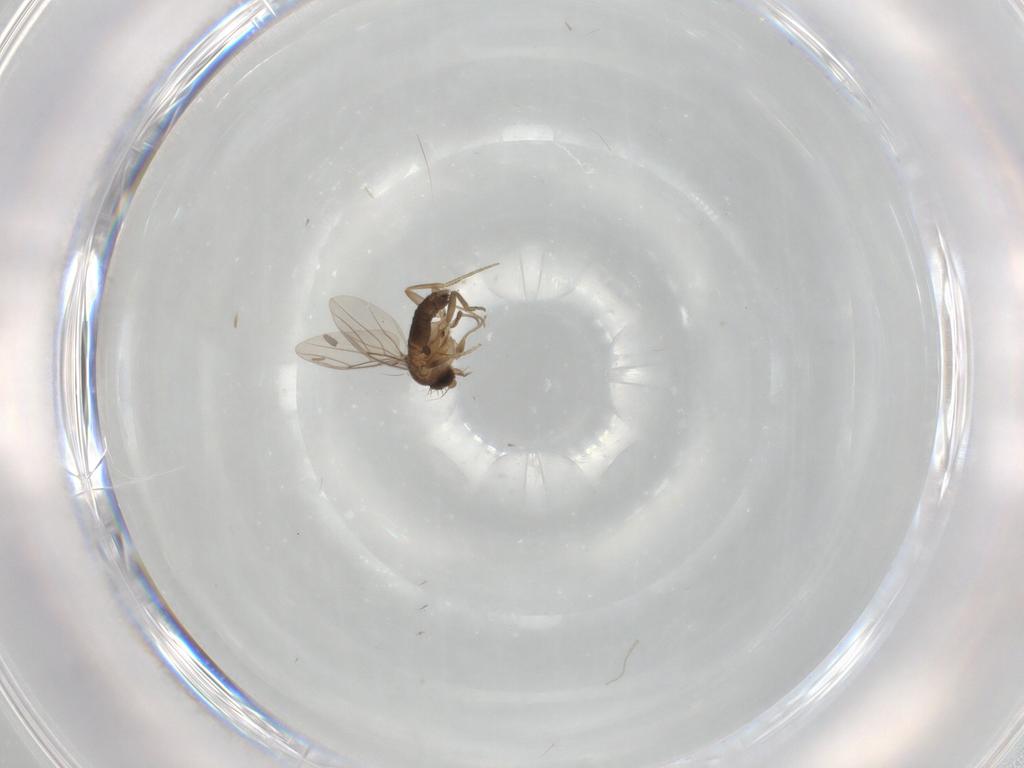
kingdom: Animalia
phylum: Arthropoda
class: Insecta
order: Diptera
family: Phoridae
